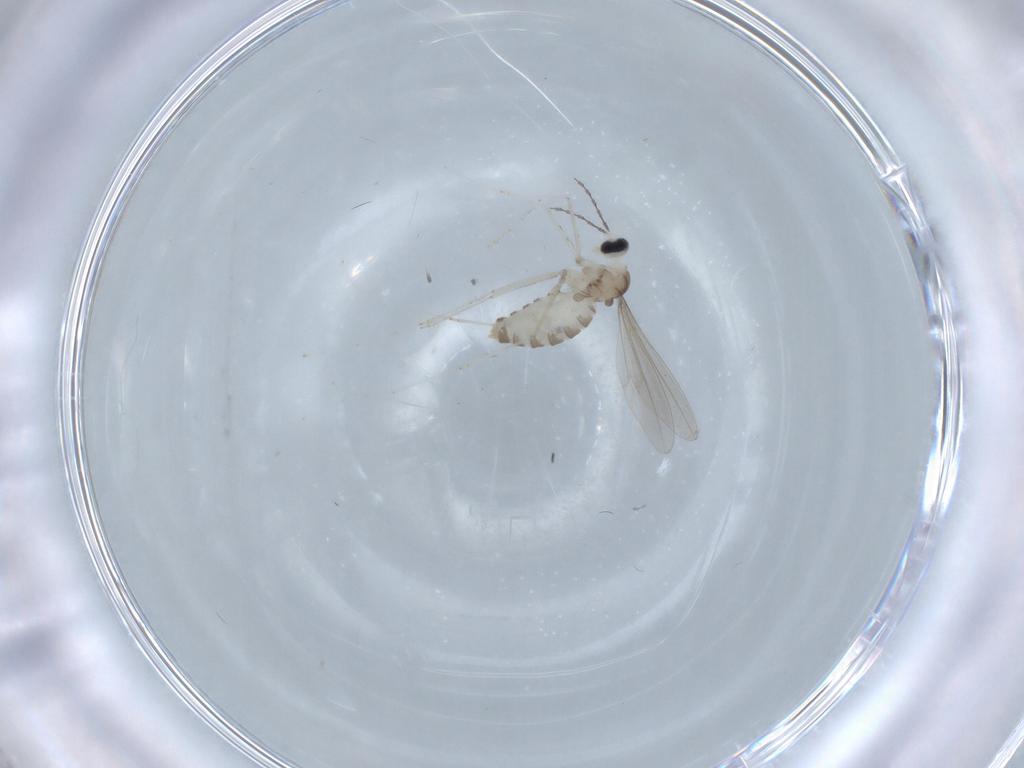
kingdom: Animalia
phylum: Arthropoda
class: Insecta
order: Diptera
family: Cecidomyiidae
